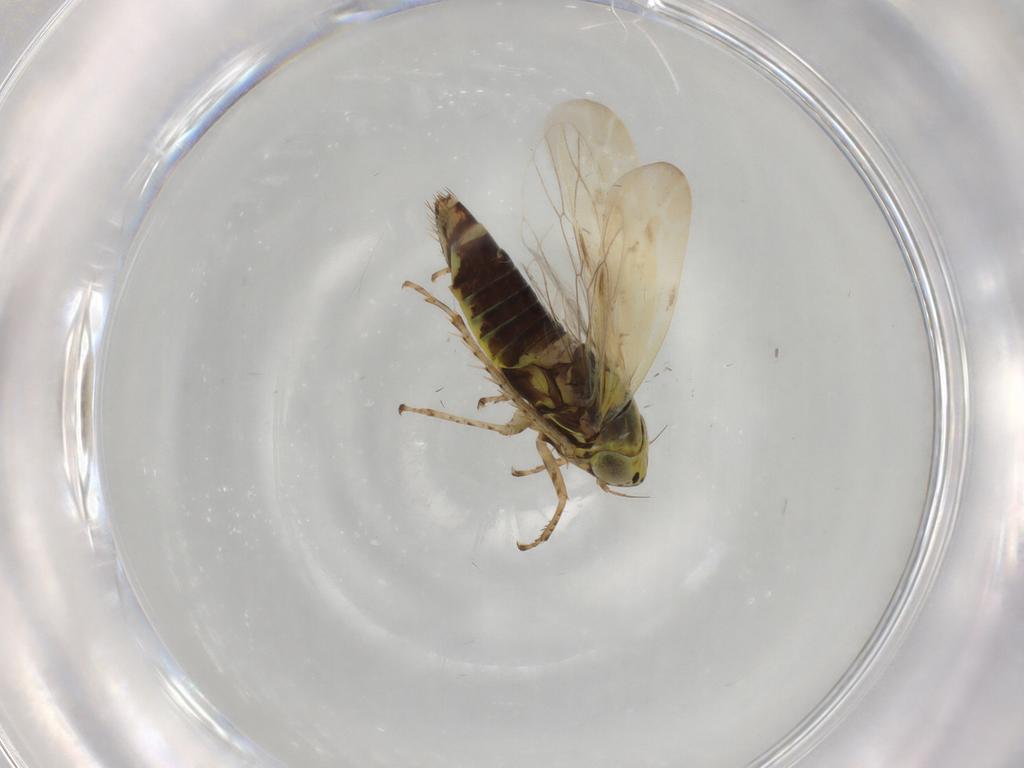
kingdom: Animalia
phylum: Arthropoda
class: Insecta
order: Hemiptera
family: Cicadellidae
